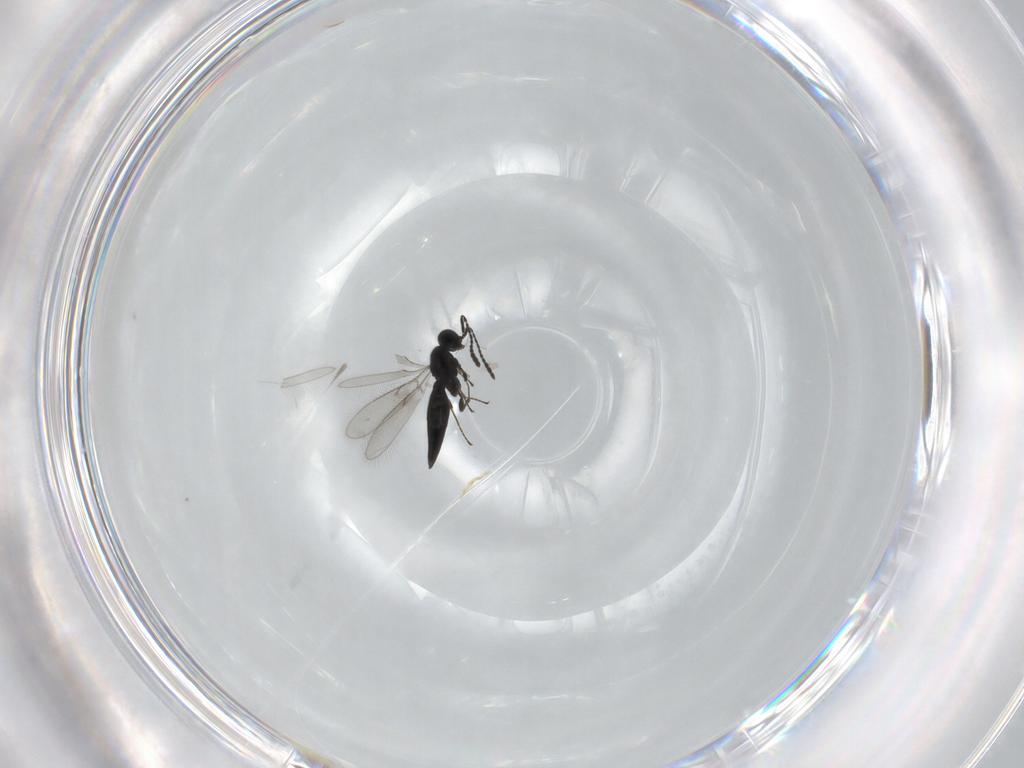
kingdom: Animalia
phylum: Arthropoda
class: Insecta
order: Hymenoptera
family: Scelionidae
